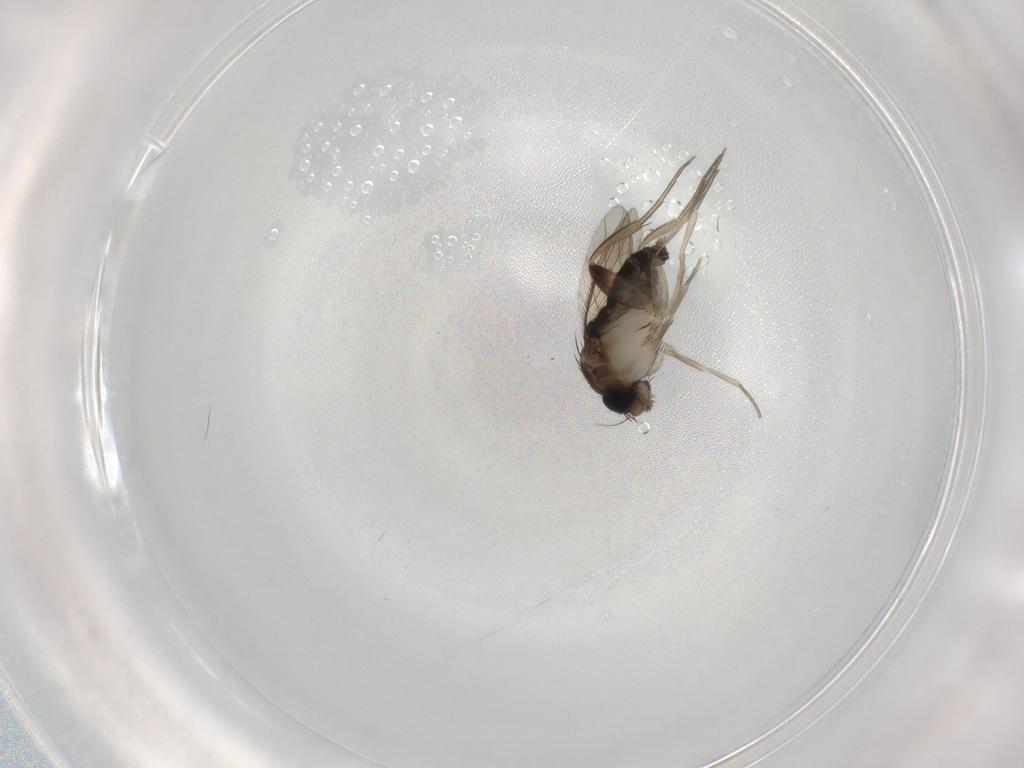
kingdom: Animalia
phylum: Arthropoda
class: Insecta
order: Diptera
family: Phoridae
